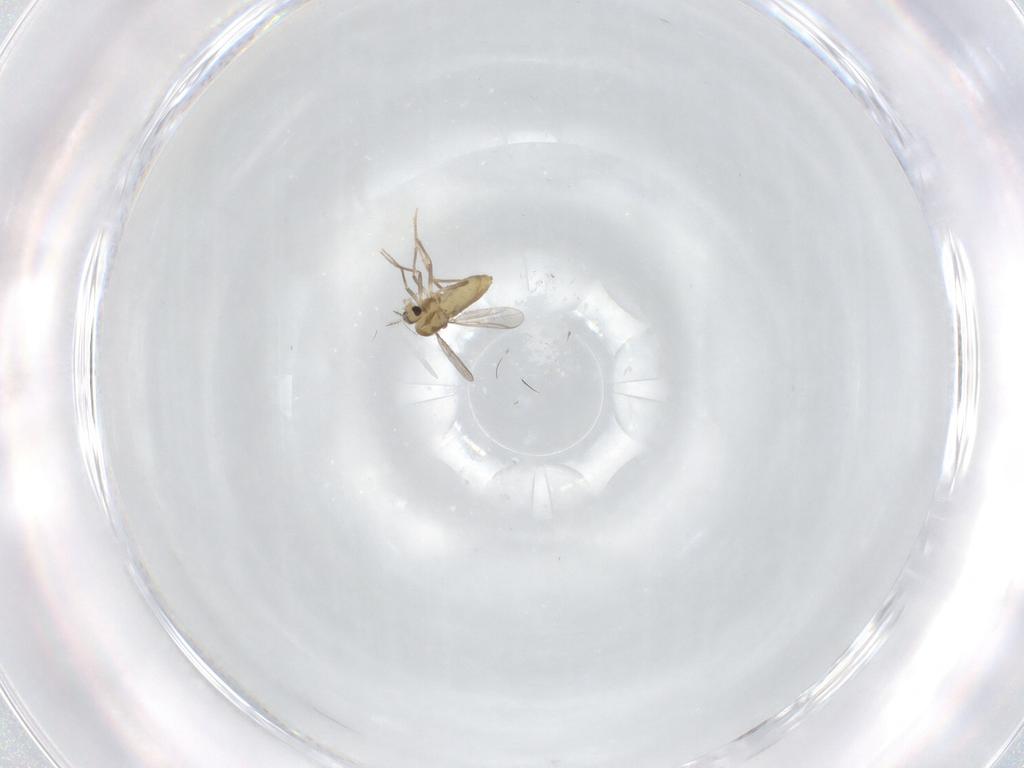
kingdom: Animalia
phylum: Arthropoda
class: Insecta
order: Diptera
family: Chironomidae
